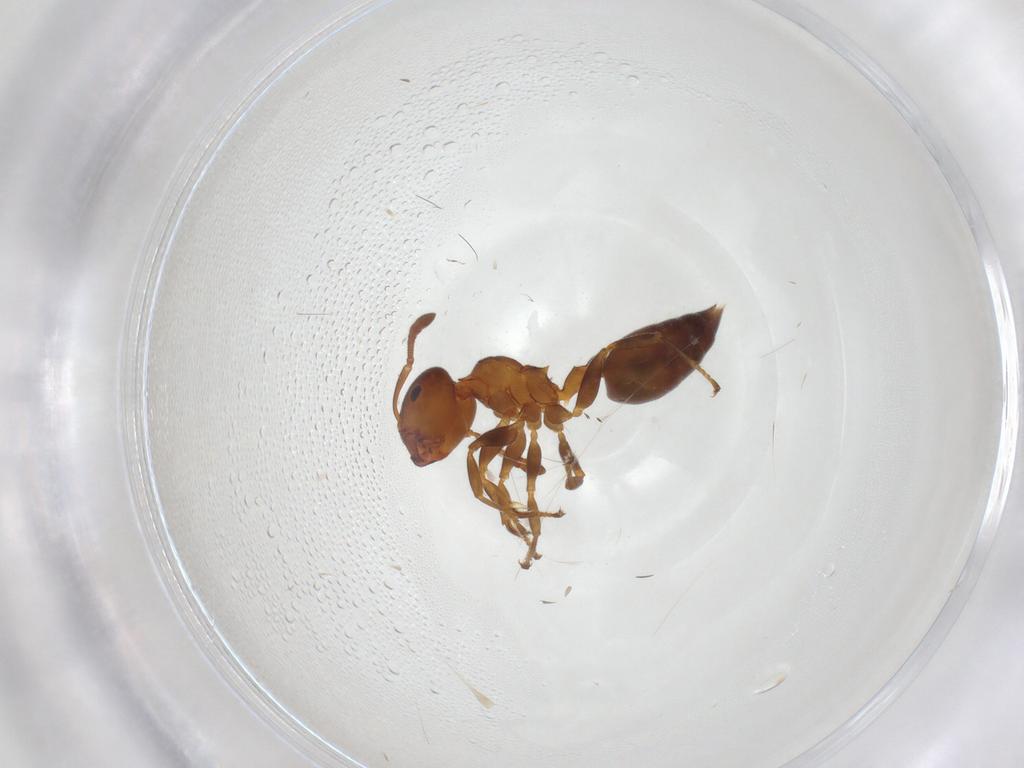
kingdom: Animalia
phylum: Arthropoda
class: Insecta
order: Hymenoptera
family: Formicidae
